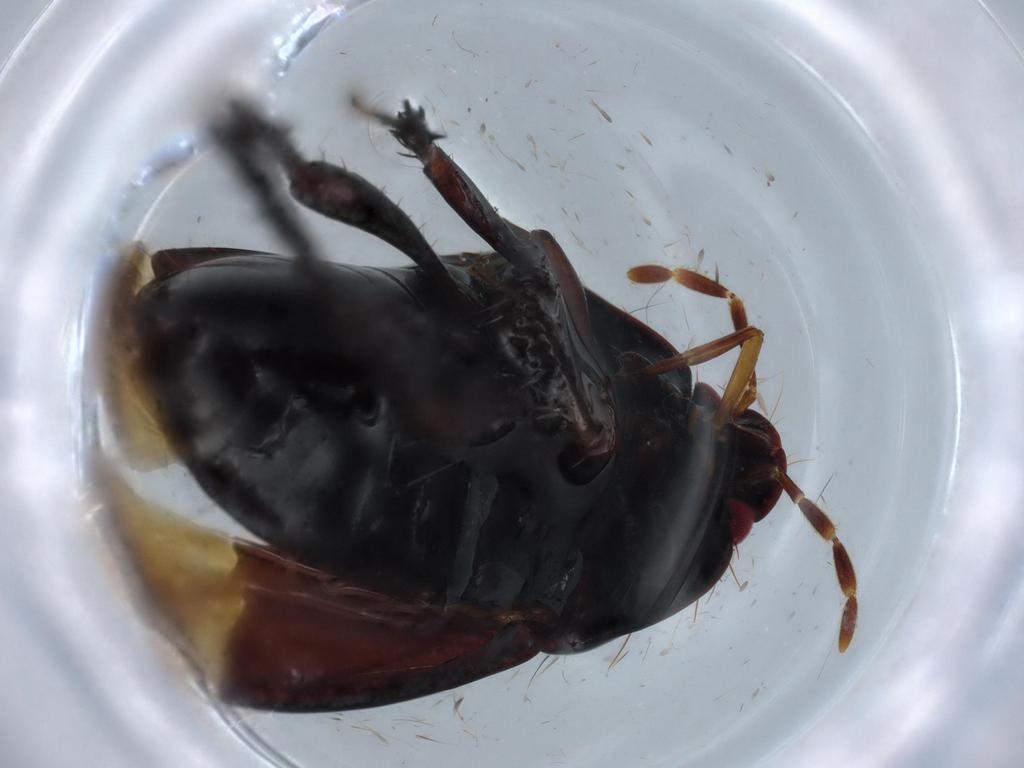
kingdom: Animalia
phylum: Arthropoda
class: Insecta
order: Hemiptera
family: Cydnidae
